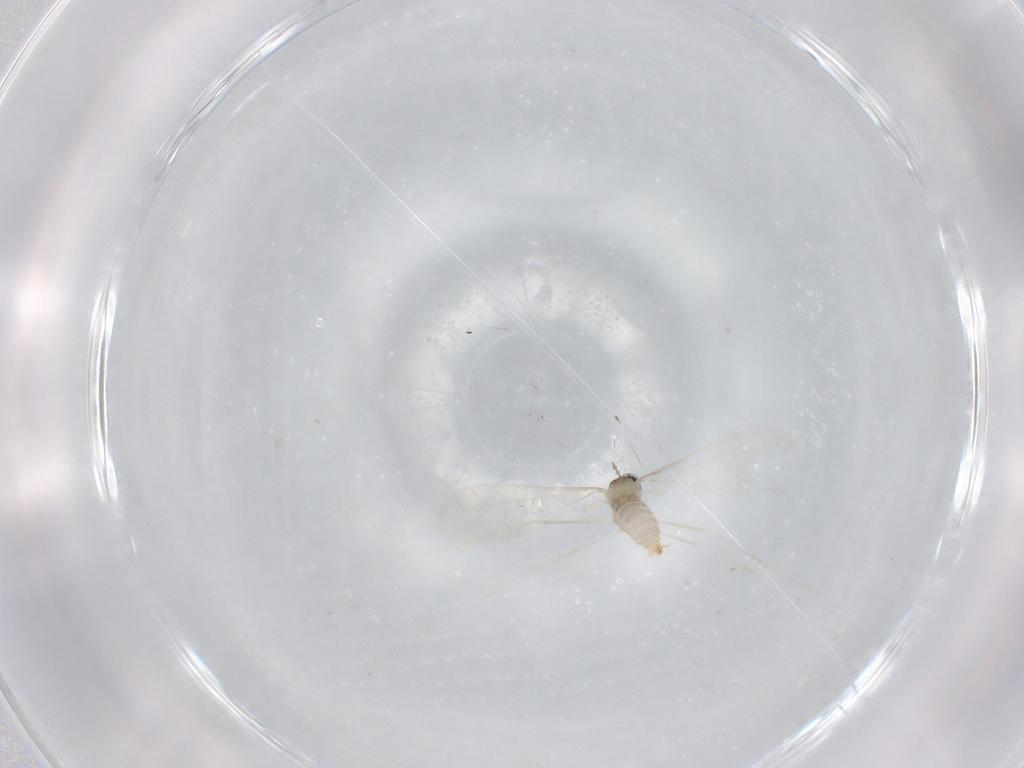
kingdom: Animalia
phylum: Arthropoda
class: Insecta
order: Diptera
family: Cecidomyiidae
